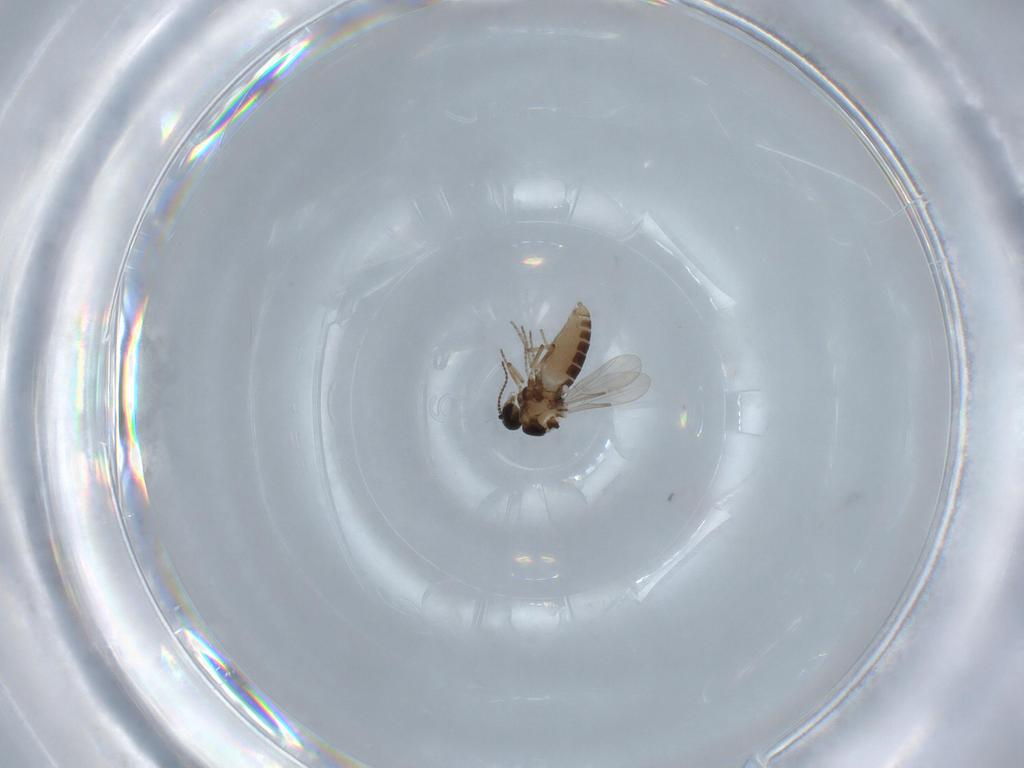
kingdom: Animalia
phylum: Arthropoda
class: Insecta
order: Diptera
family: Ceratopogonidae
